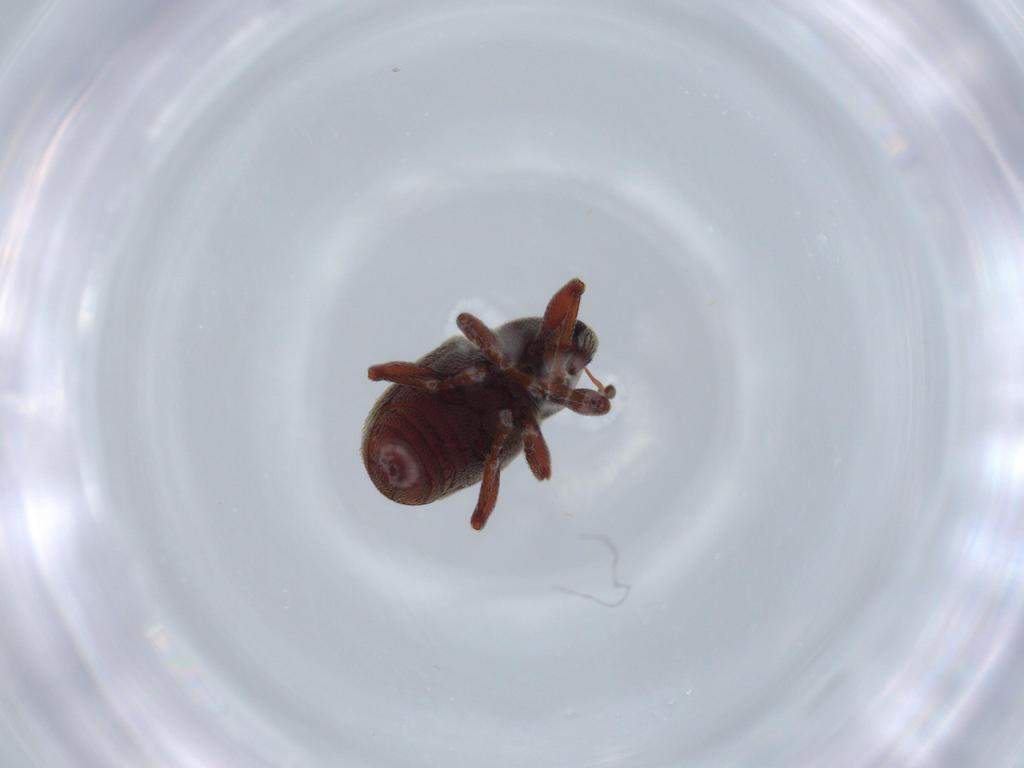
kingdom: Animalia
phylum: Arthropoda
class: Insecta
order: Coleoptera
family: Curculionidae
